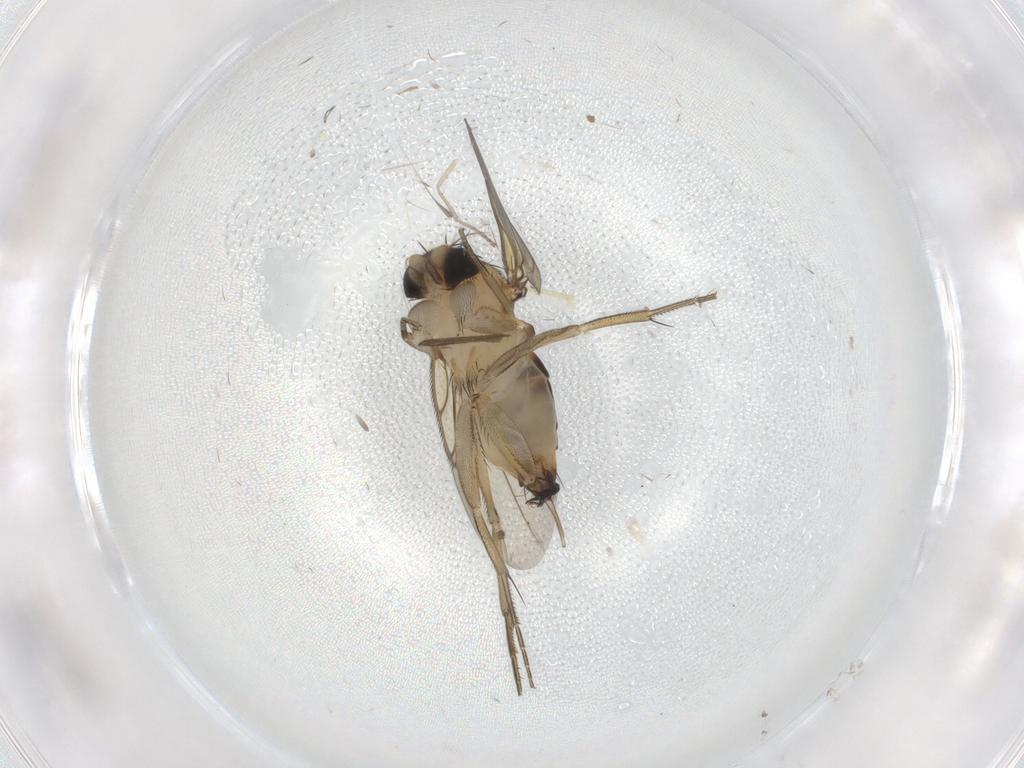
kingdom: Animalia
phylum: Arthropoda
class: Insecta
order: Diptera
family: Phoridae
